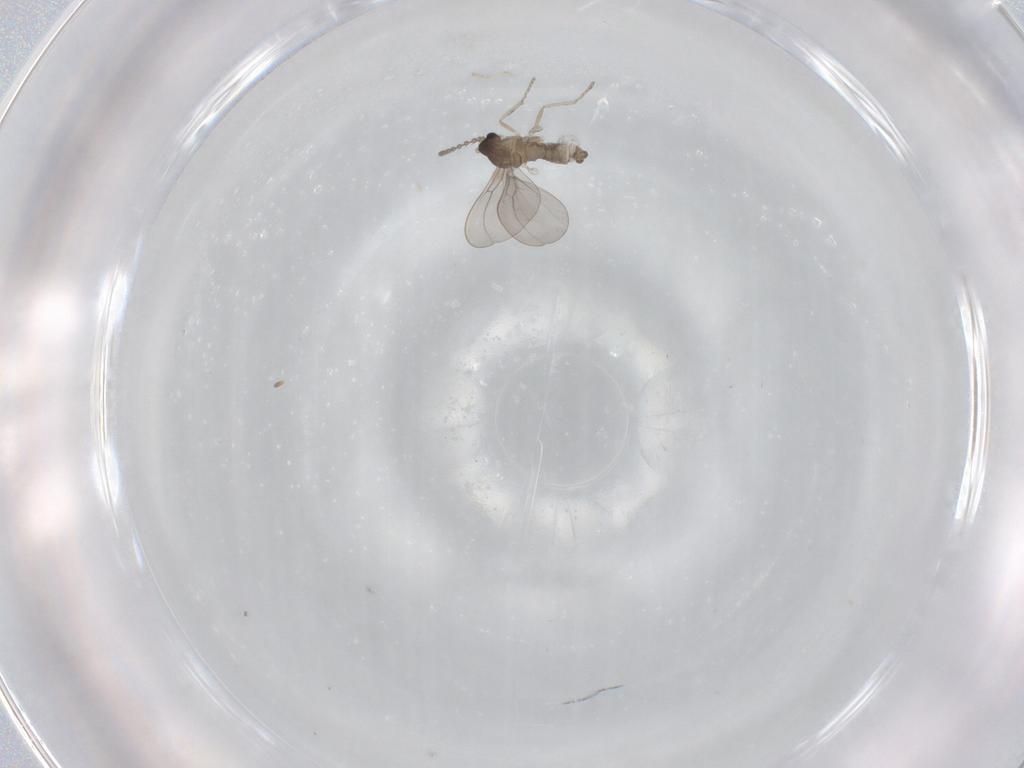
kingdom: Animalia
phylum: Arthropoda
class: Insecta
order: Diptera
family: Cecidomyiidae
